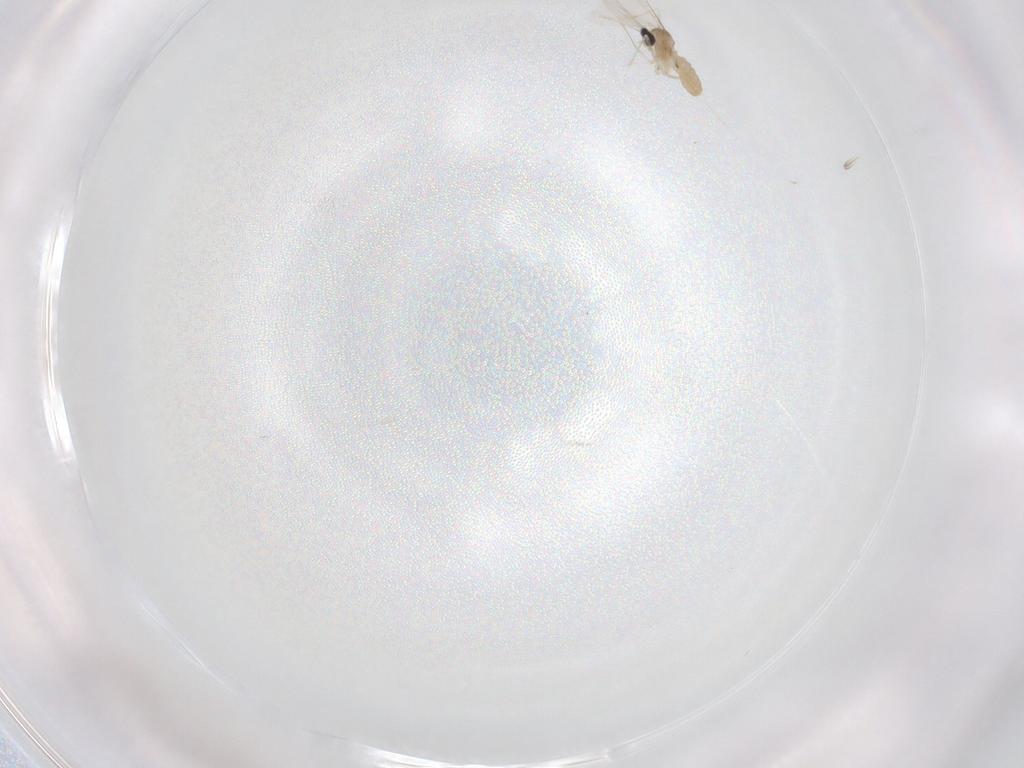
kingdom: Animalia
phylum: Arthropoda
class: Insecta
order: Diptera
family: Cecidomyiidae
